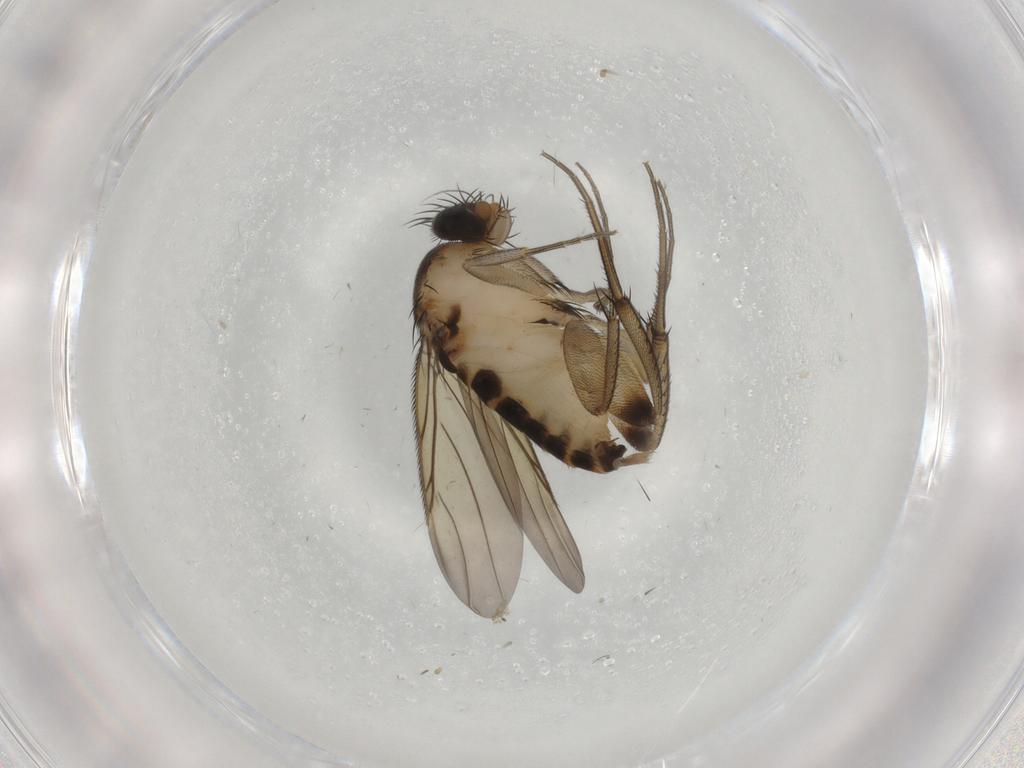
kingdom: Animalia
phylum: Arthropoda
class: Insecta
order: Diptera
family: Phoridae
